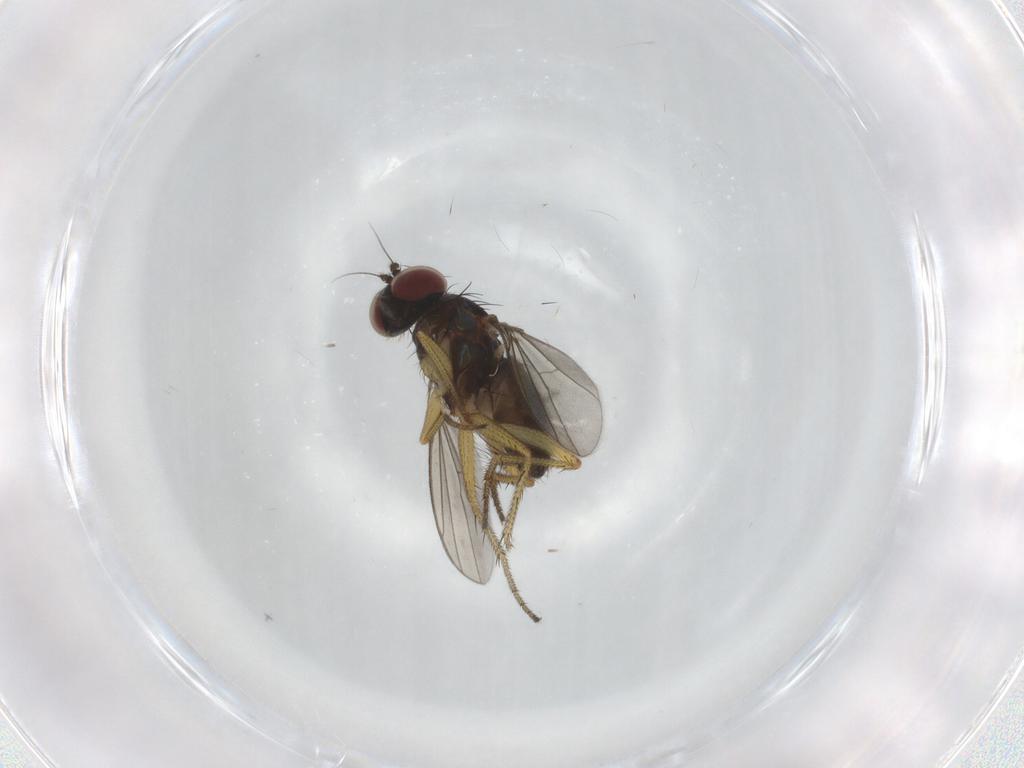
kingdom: Animalia
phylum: Arthropoda
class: Insecta
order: Diptera
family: Dolichopodidae
